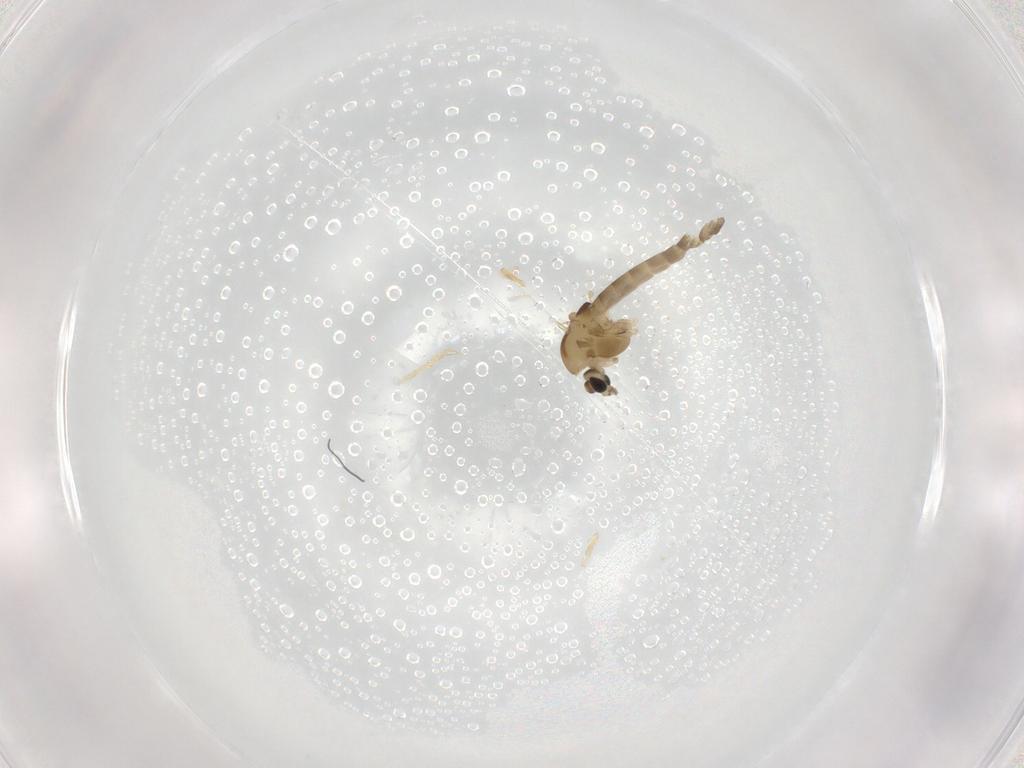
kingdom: Animalia
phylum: Arthropoda
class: Insecta
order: Diptera
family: Chironomidae
